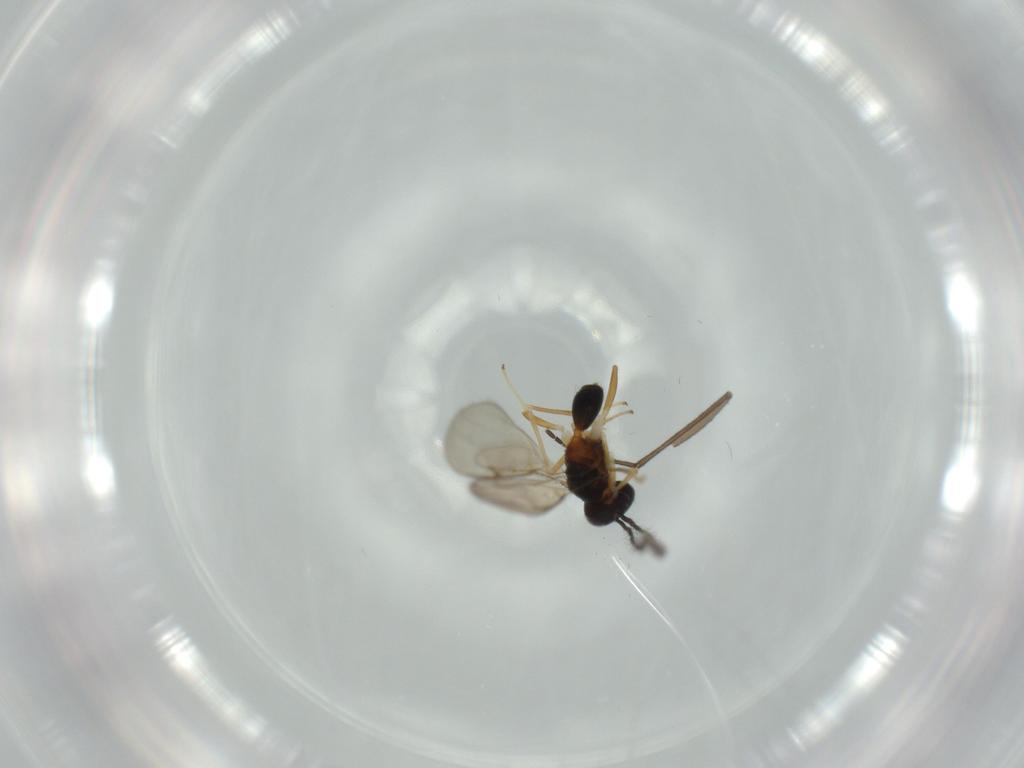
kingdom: Animalia
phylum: Arthropoda
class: Insecta
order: Hymenoptera
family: Diparidae
